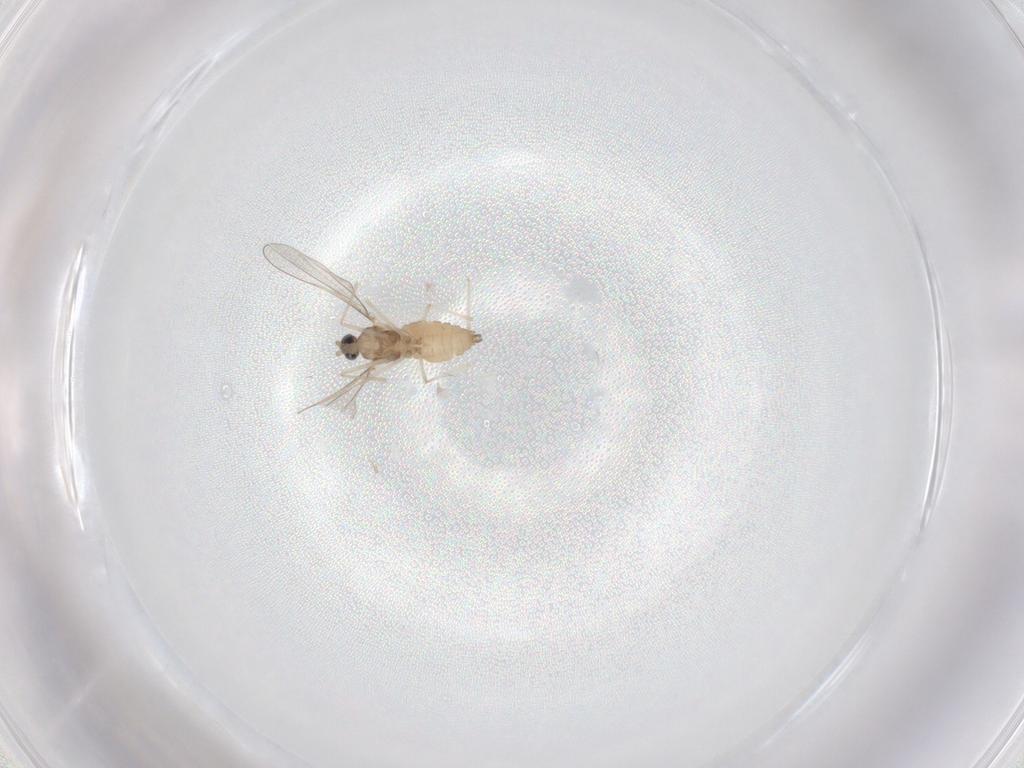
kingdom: Animalia
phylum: Arthropoda
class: Insecta
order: Diptera
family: Cecidomyiidae
